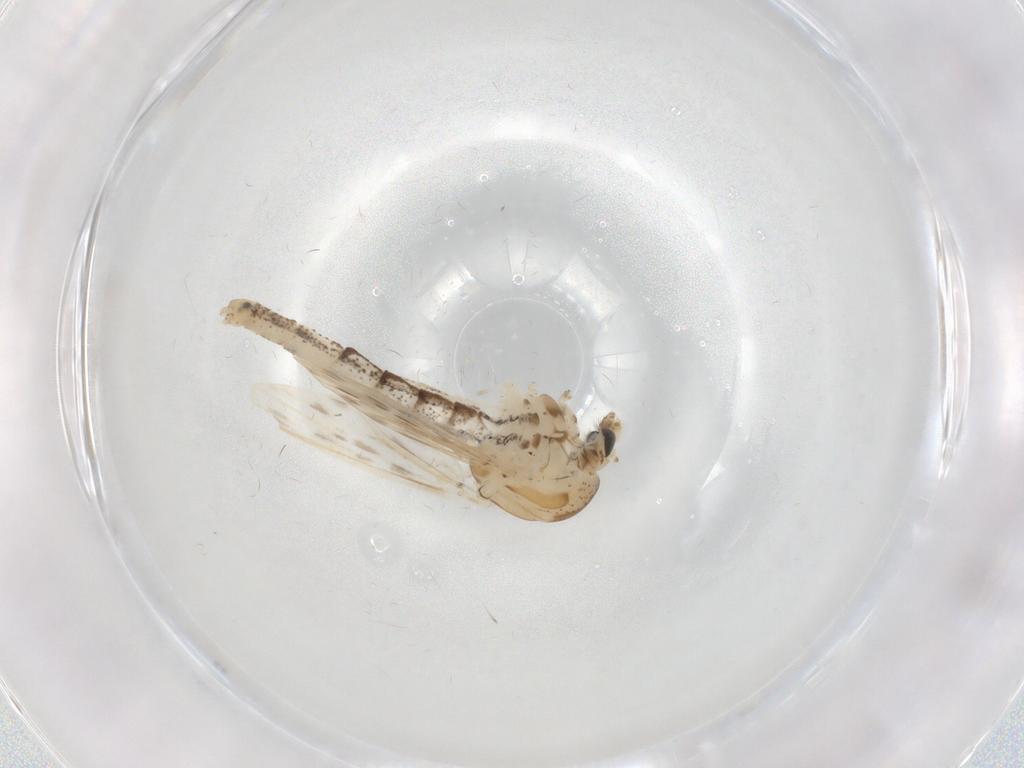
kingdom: Animalia
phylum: Arthropoda
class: Insecta
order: Diptera
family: Chaoboridae
